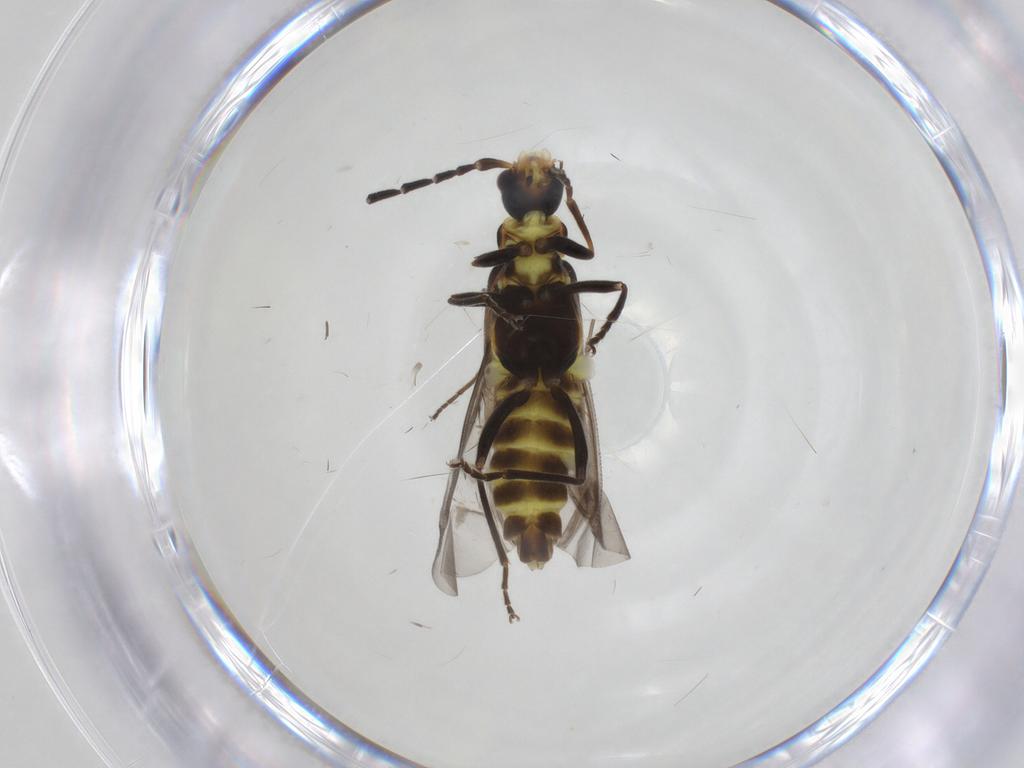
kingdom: Animalia
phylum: Arthropoda
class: Insecta
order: Coleoptera
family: Cantharidae
